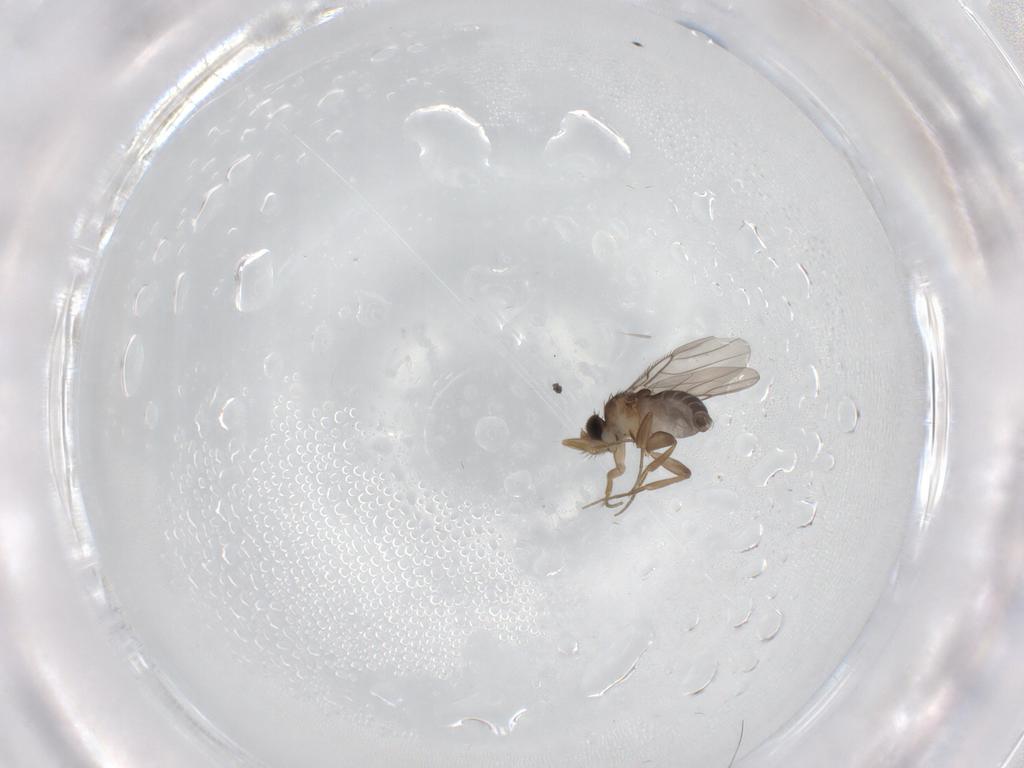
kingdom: Animalia
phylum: Arthropoda
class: Insecta
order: Diptera
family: Phoridae
